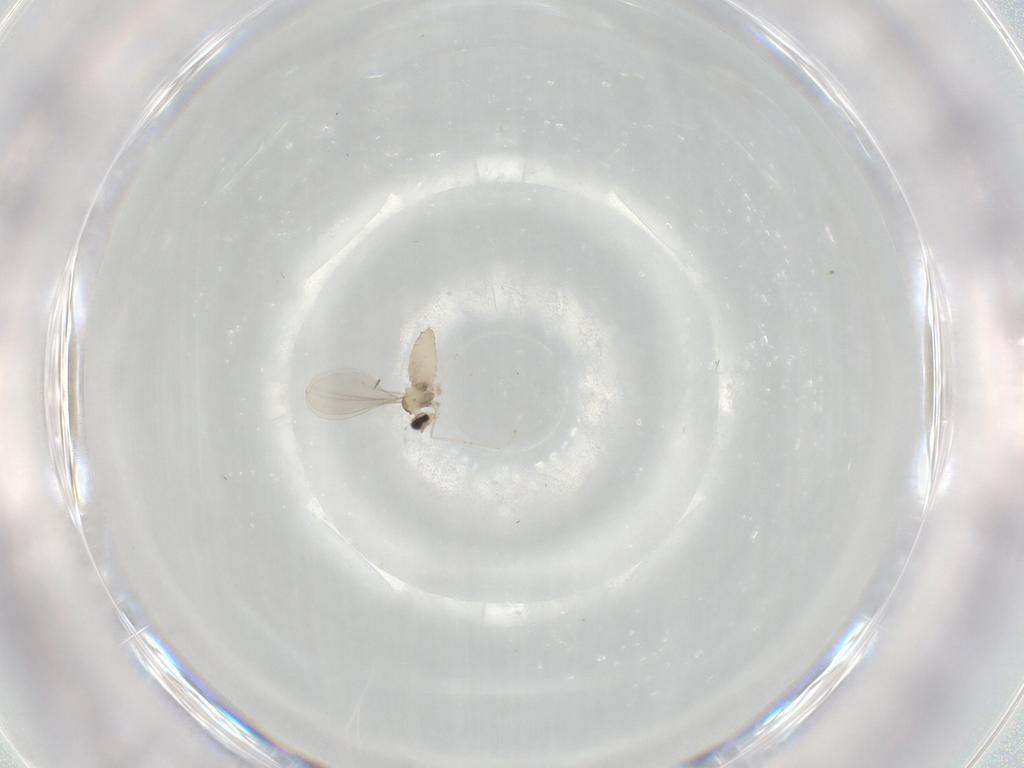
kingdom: Animalia
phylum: Arthropoda
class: Insecta
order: Diptera
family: Cecidomyiidae
